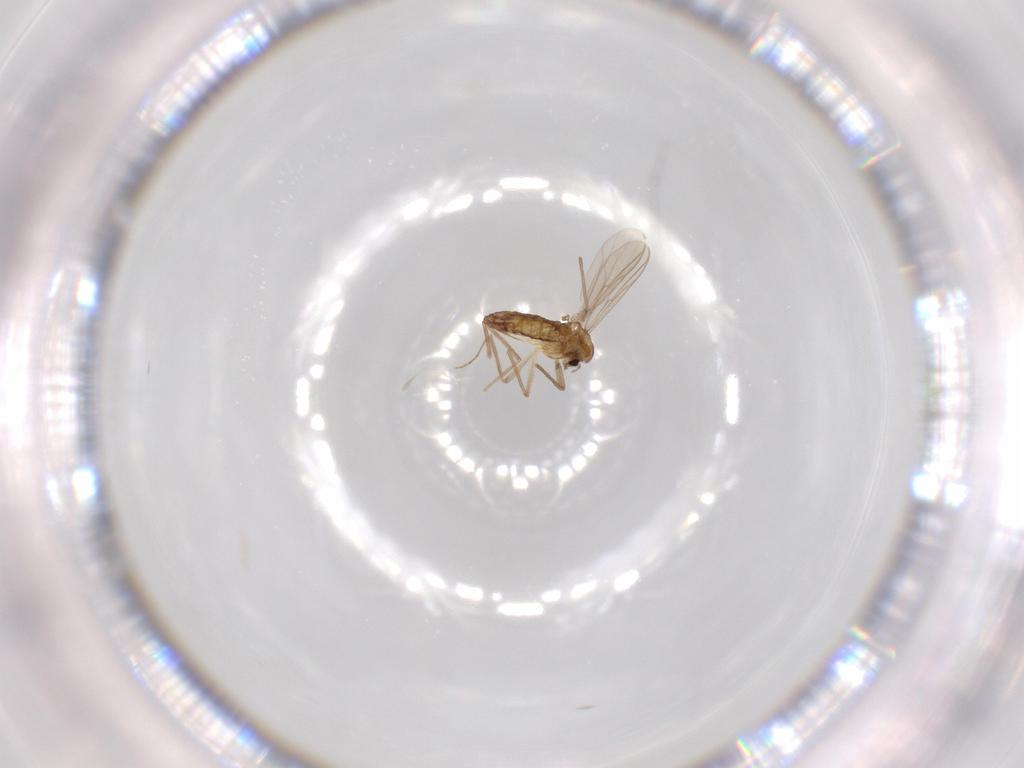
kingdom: Animalia
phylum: Arthropoda
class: Insecta
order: Diptera
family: Chironomidae
